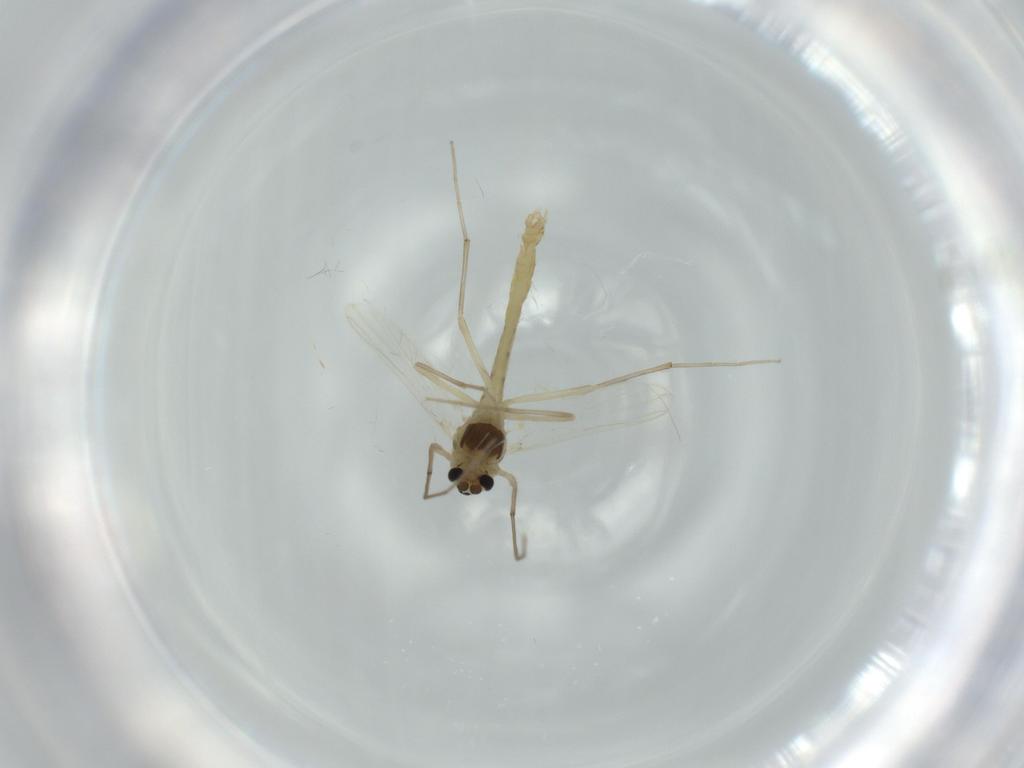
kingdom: Animalia
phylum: Arthropoda
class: Insecta
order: Diptera
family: Chironomidae
